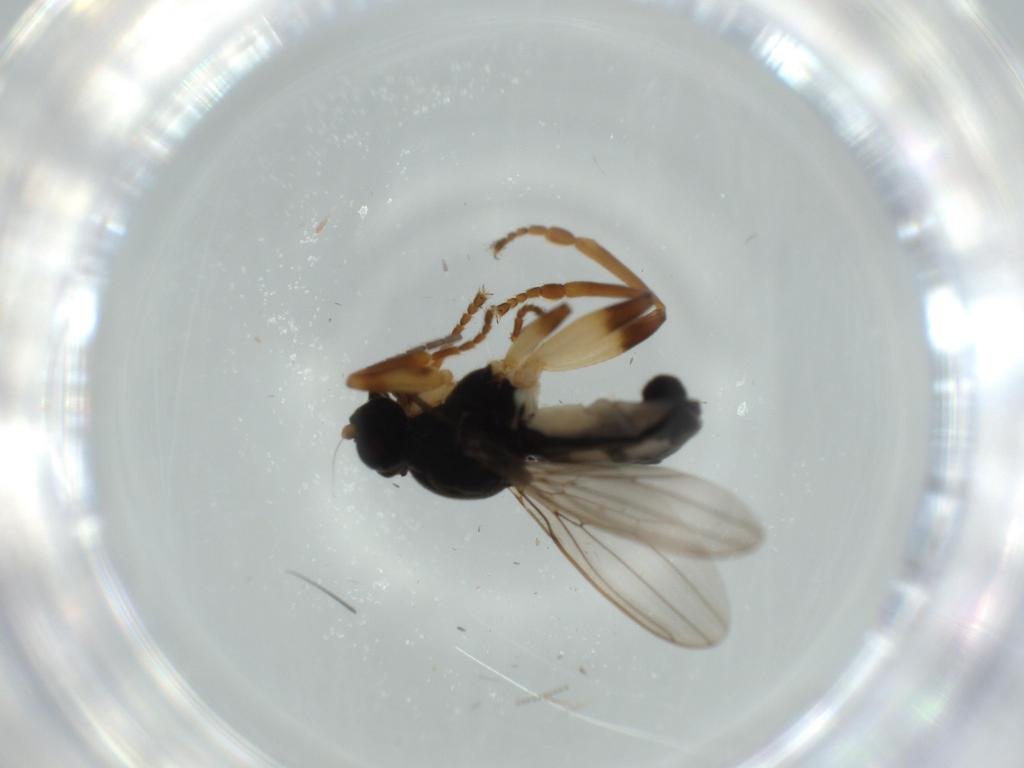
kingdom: Animalia
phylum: Arthropoda
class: Insecta
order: Diptera
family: Sphaeroceridae
